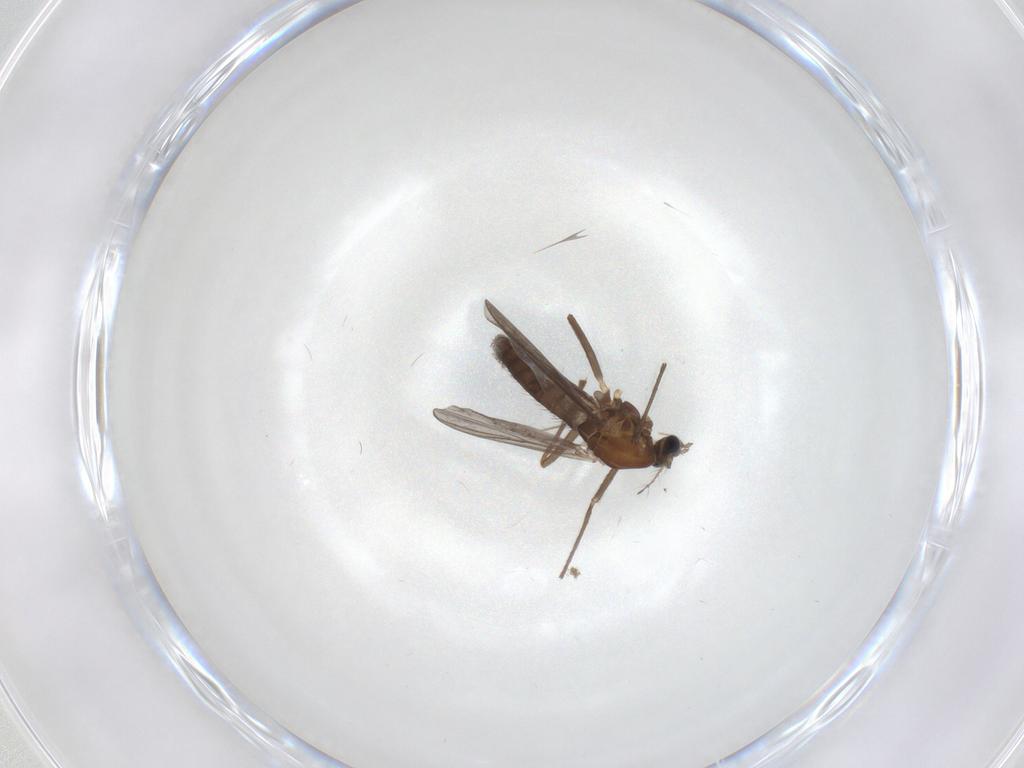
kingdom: Animalia
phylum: Arthropoda
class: Insecta
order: Diptera
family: Chironomidae
